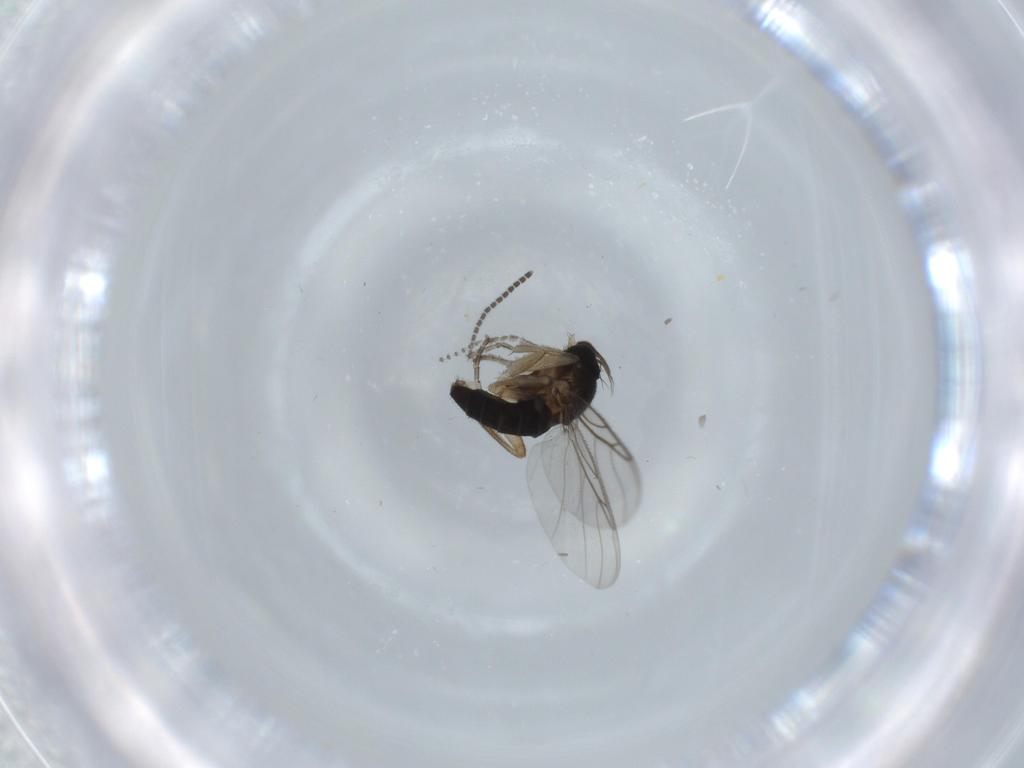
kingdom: Animalia
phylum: Arthropoda
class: Insecta
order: Diptera
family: Sciaridae
